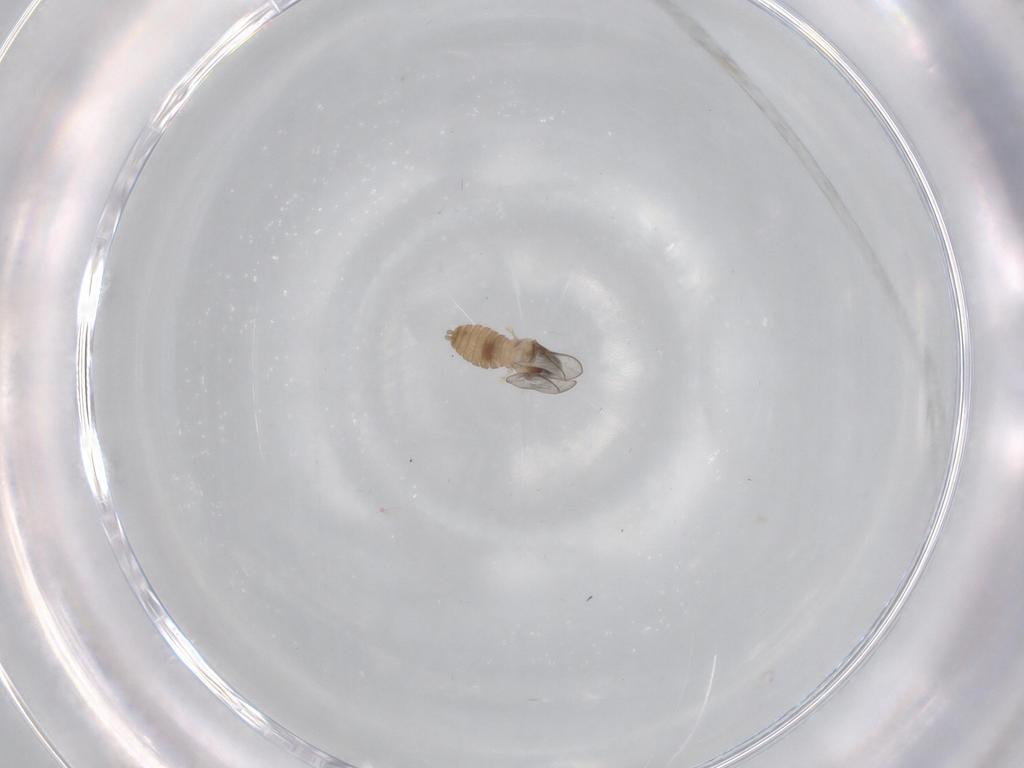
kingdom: Animalia
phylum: Arthropoda
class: Insecta
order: Diptera
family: Cecidomyiidae
